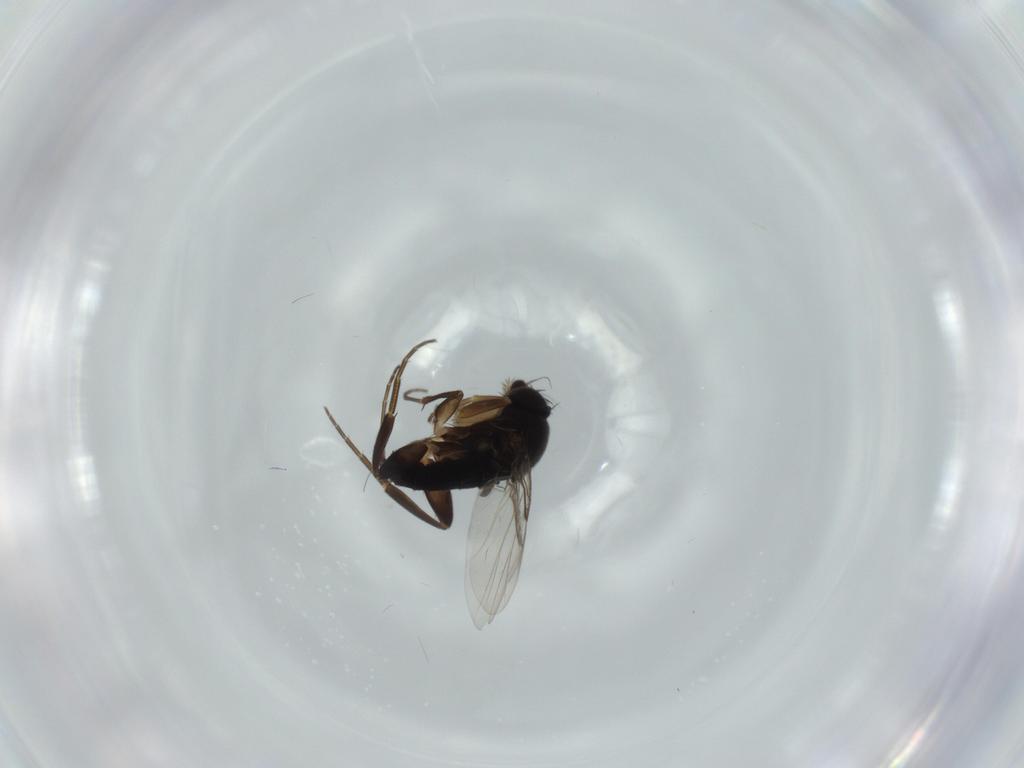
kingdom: Animalia
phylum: Arthropoda
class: Insecta
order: Diptera
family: Phoridae
